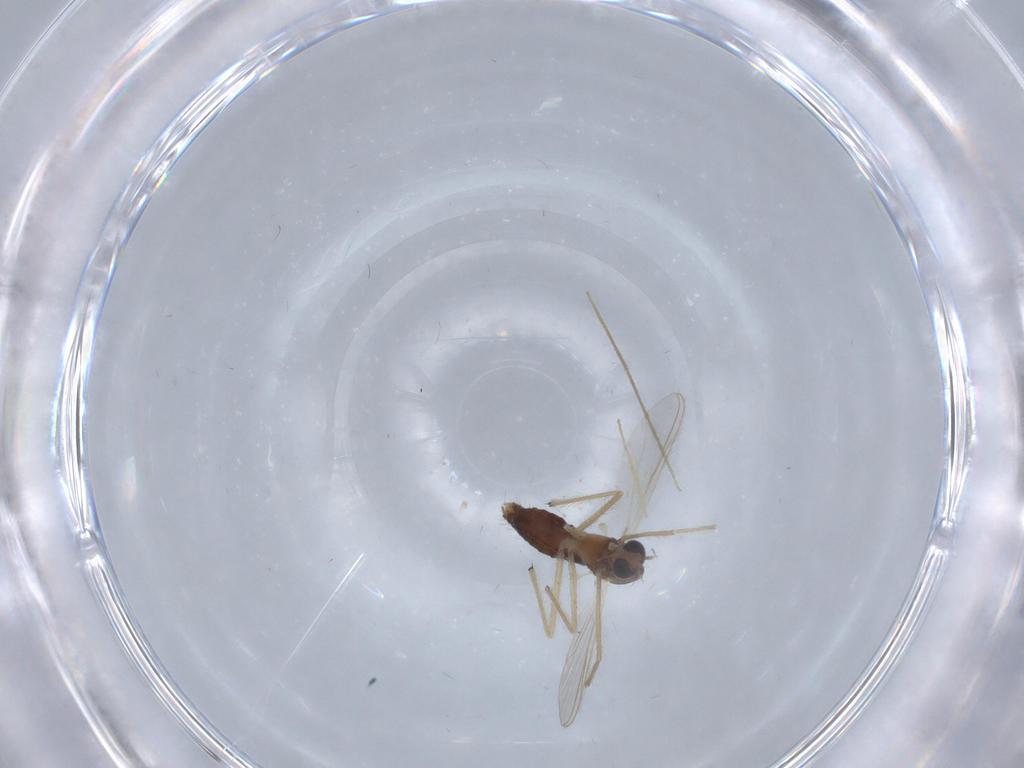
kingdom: Animalia
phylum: Arthropoda
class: Insecta
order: Diptera
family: Chironomidae
